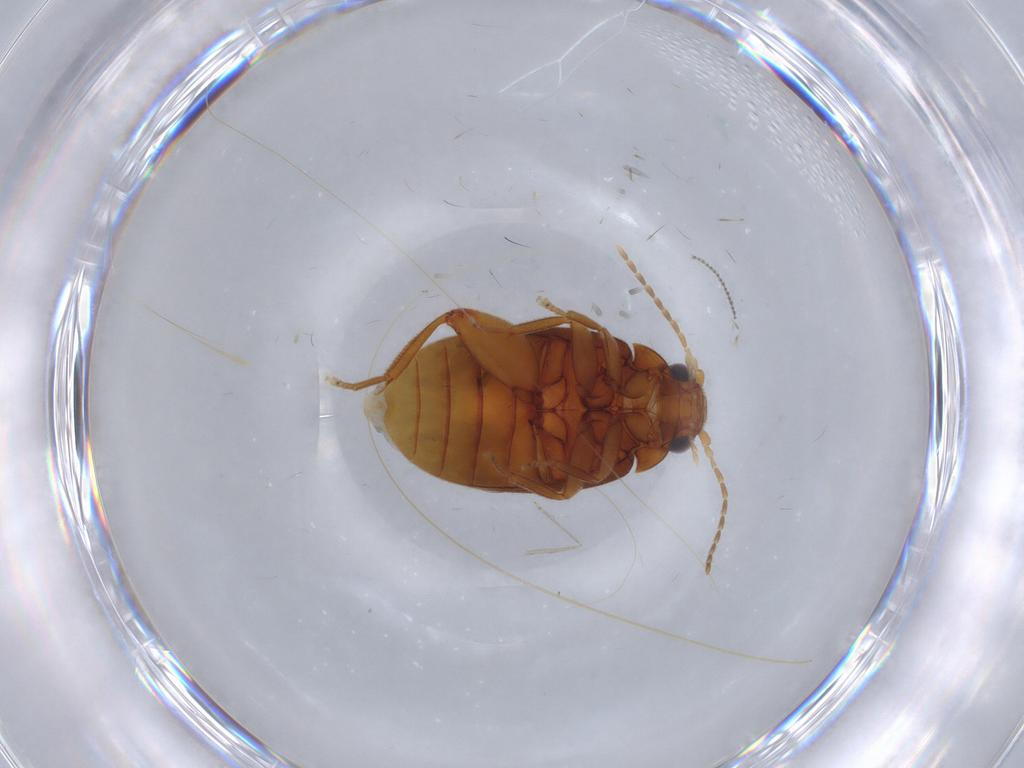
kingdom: Animalia
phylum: Arthropoda
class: Insecta
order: Coleoptera
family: Scirtidae
